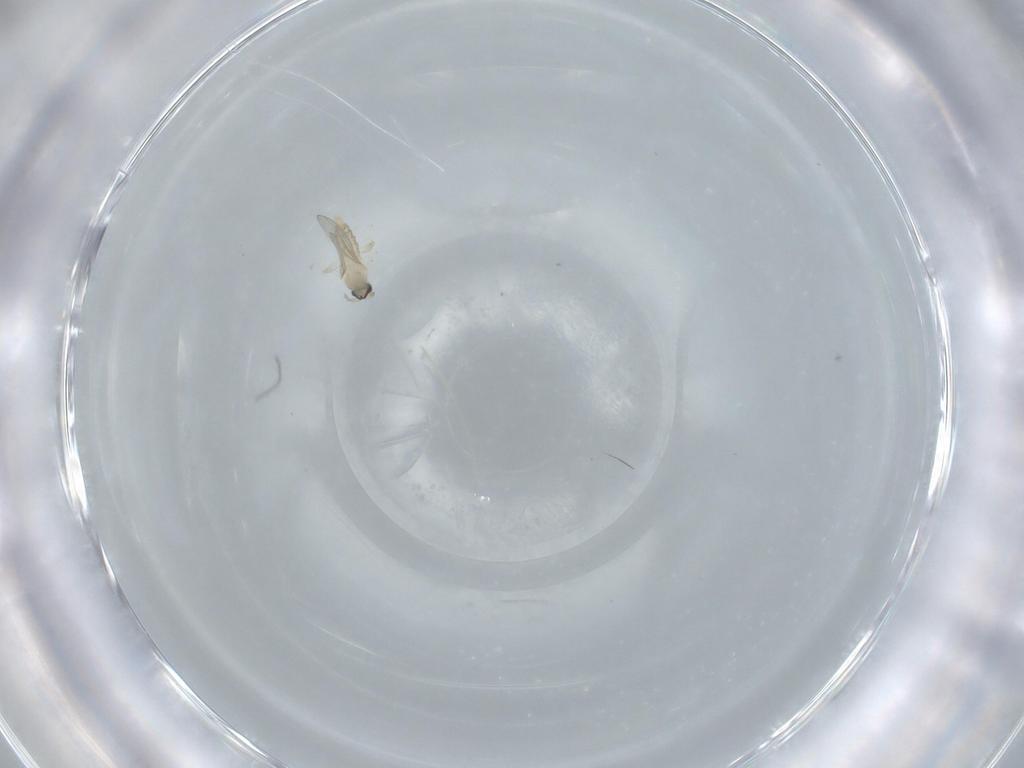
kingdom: Animalia
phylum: Arthropoda
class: Insecta
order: Diptera
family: Cecidomyiidae
